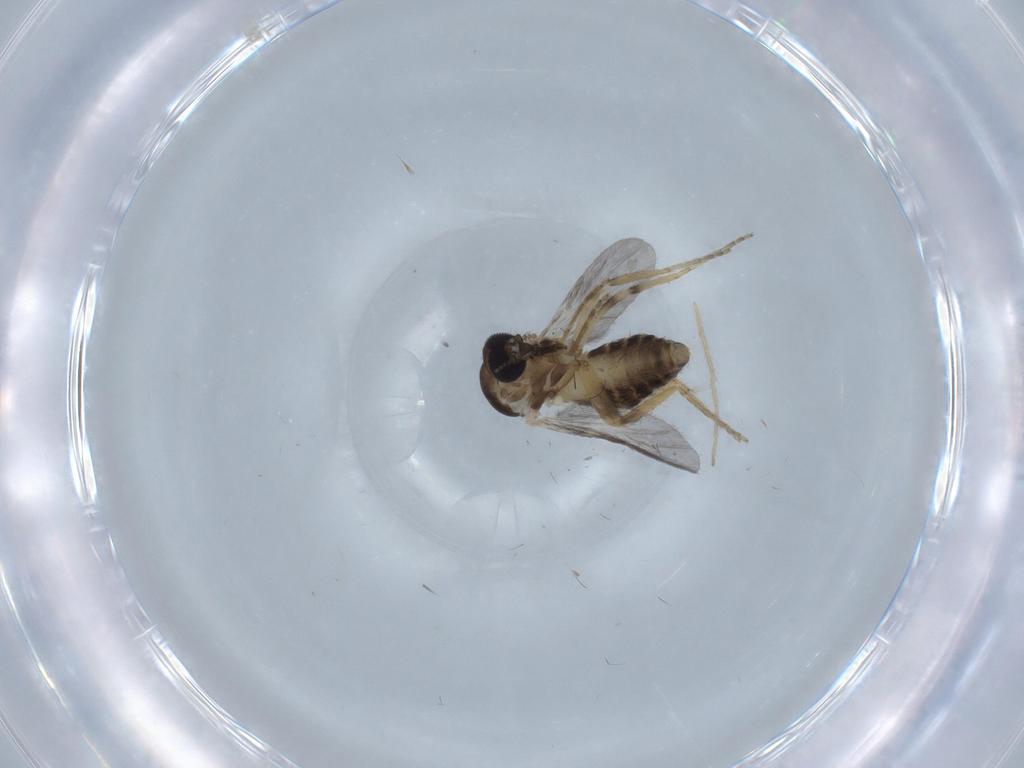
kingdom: Animalia
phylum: Arthropoda
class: Insecta
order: Diptera
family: Ceratopogonidae
